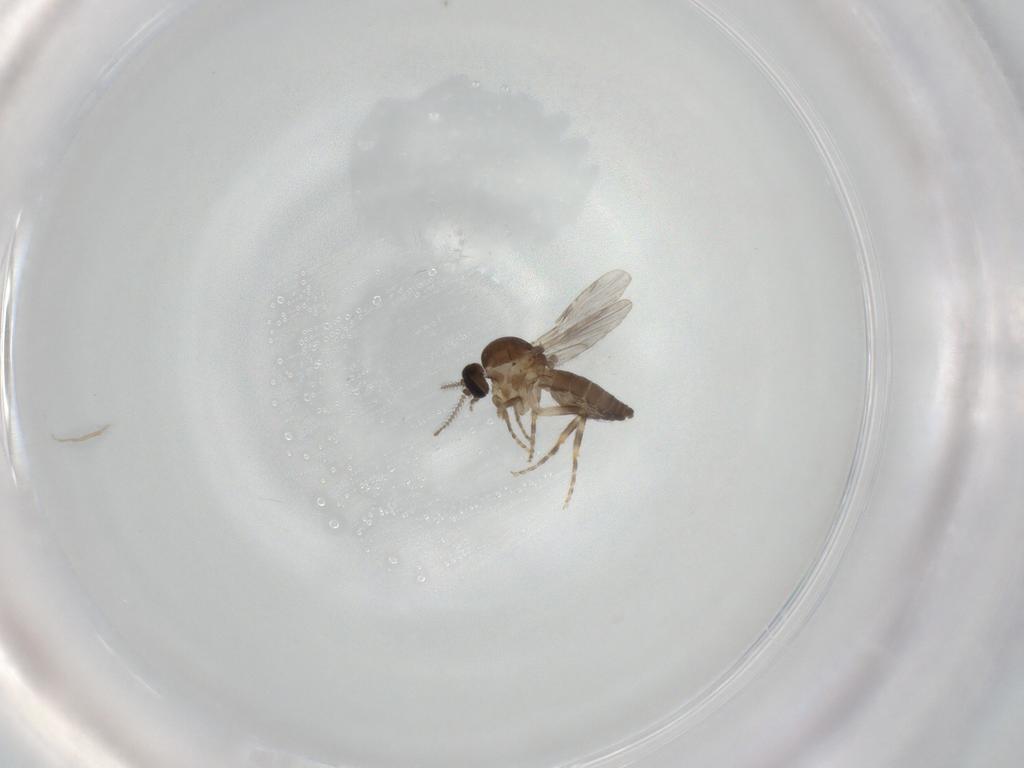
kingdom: Animalia
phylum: Arthropoda
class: Insecta
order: Diptera
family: Ceratopogonidae
